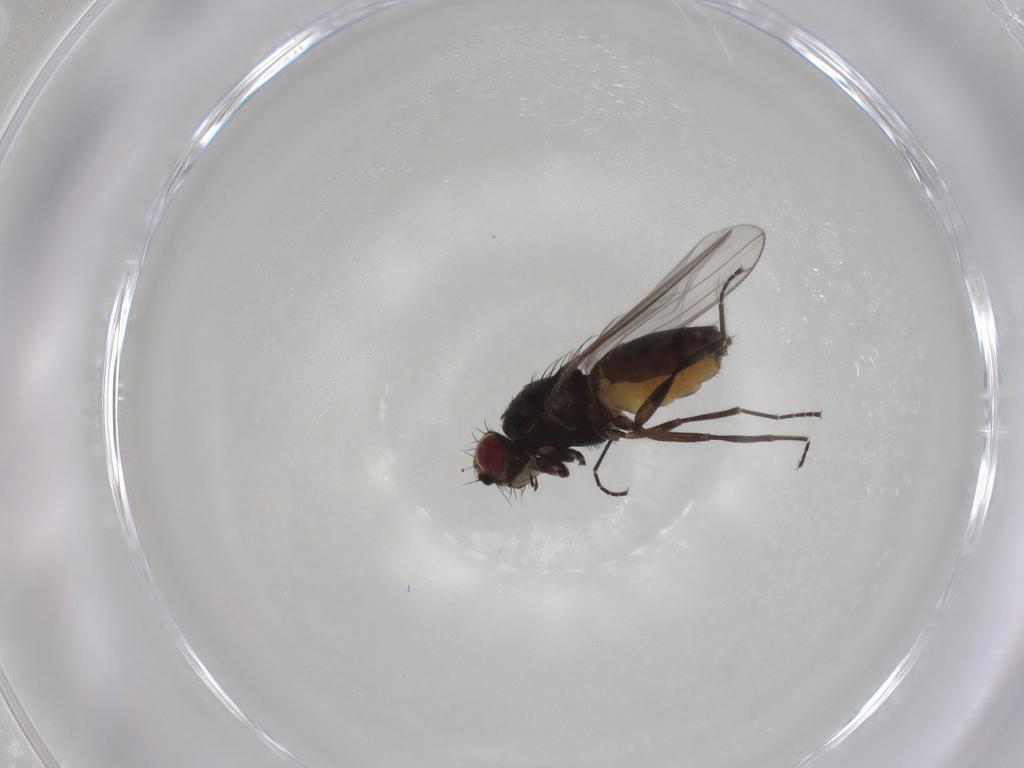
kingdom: Animalia
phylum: Arthropoda
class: Insecta
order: Diptera
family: Carnidae
